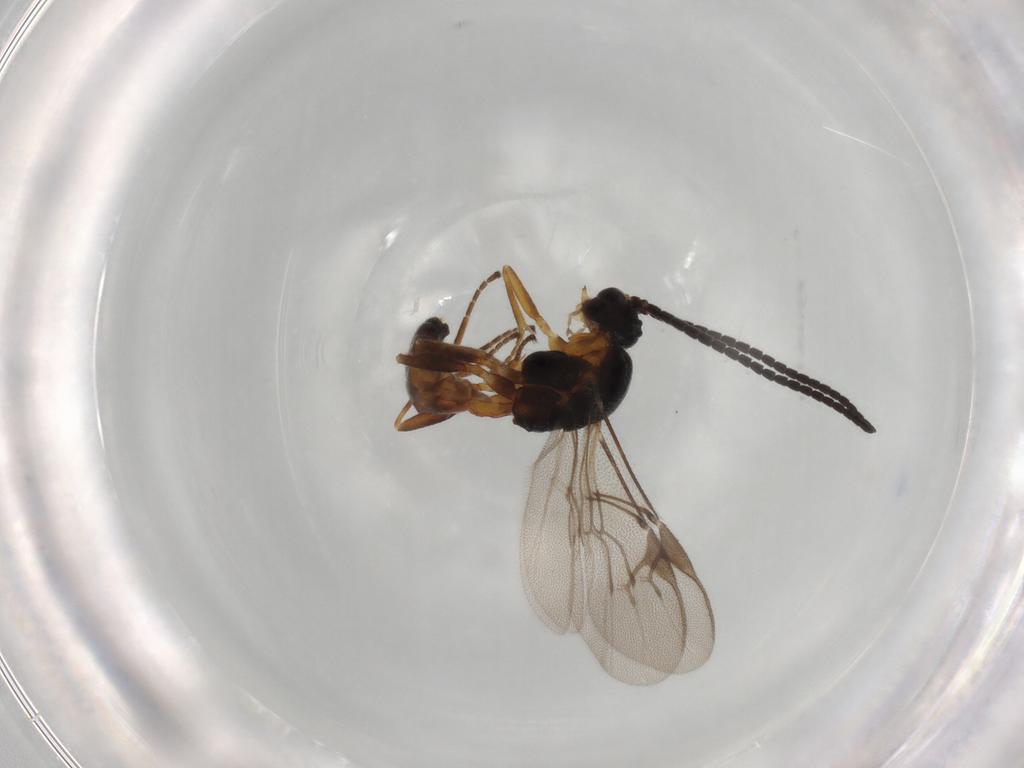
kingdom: Animalia
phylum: Arthropoda
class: Insecta
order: Hymenoptera
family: Braconidae
